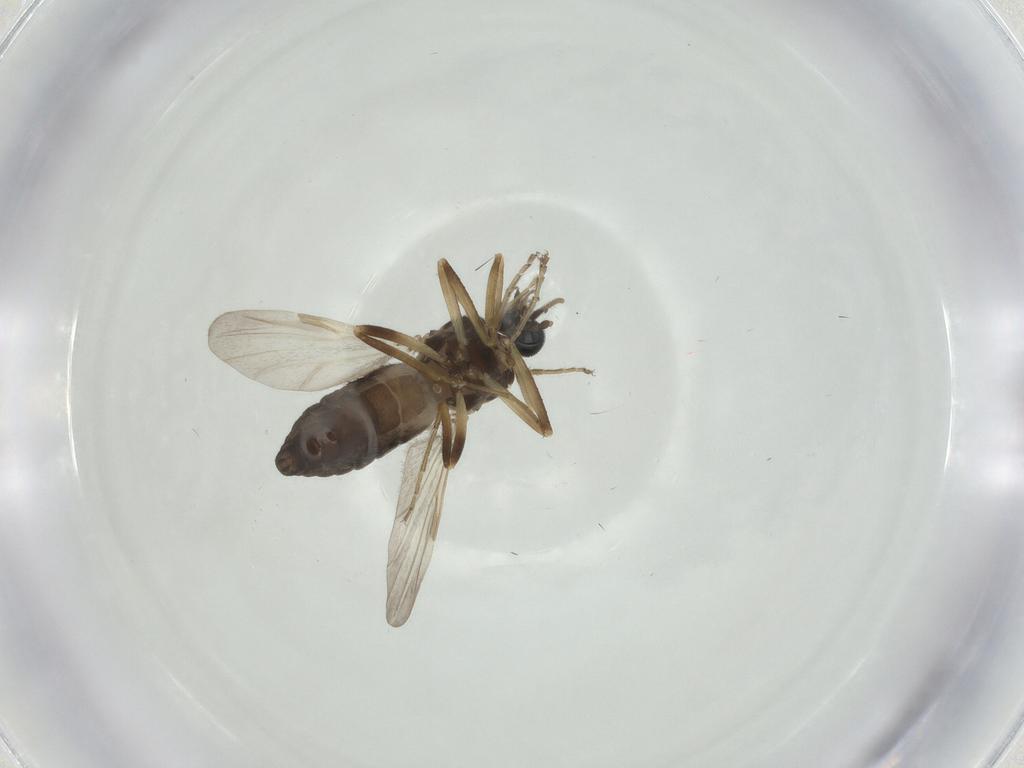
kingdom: Animalia
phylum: Arthropoda
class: Insecta
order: Diptera
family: Ceratopogonidae
